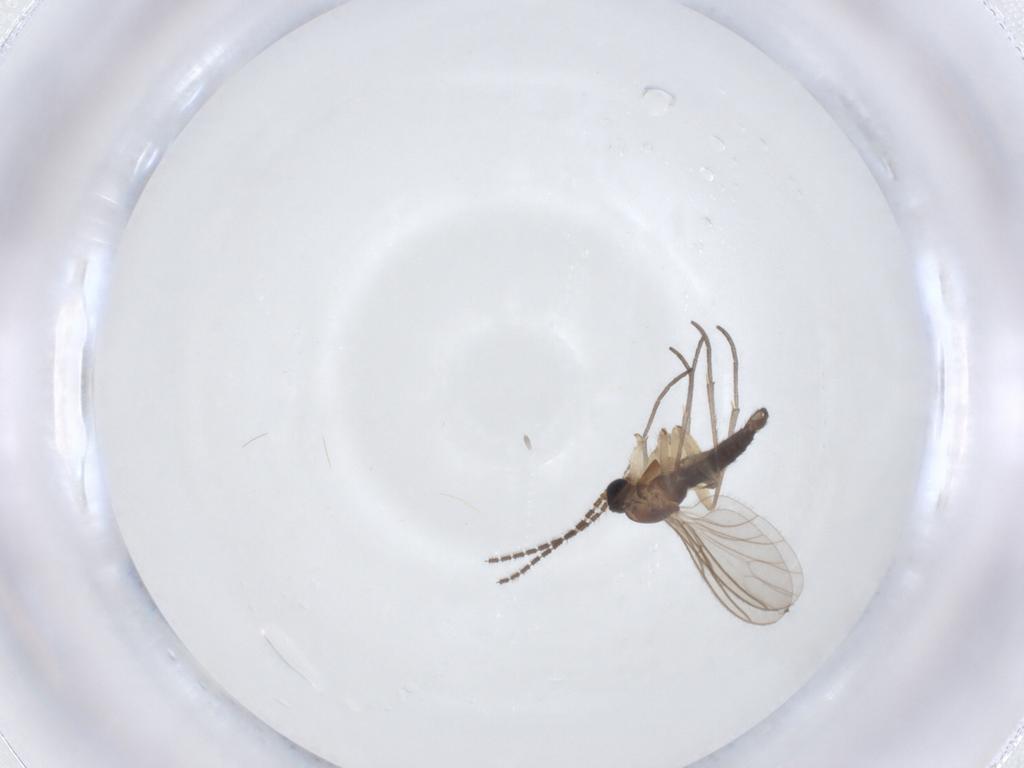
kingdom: Animalia
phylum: Arthropoda
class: Insecta
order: Diptera
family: Sciaridae
